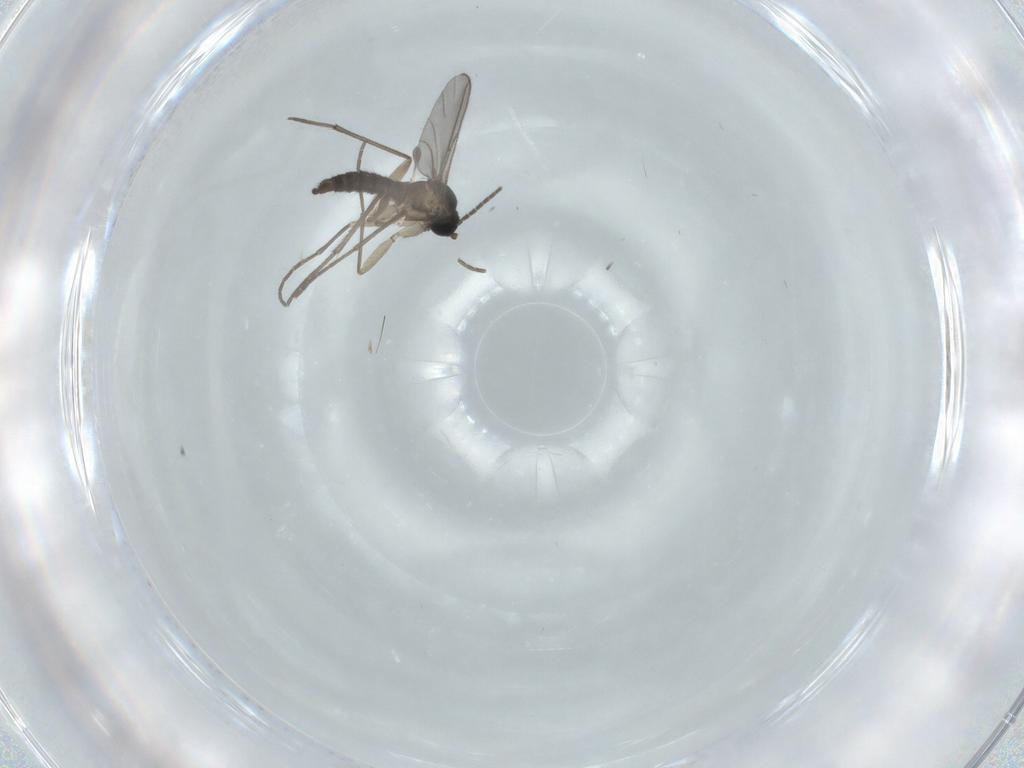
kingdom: Animalia
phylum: Arthropoda
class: Insecta
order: Diptera
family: Sciaridae
